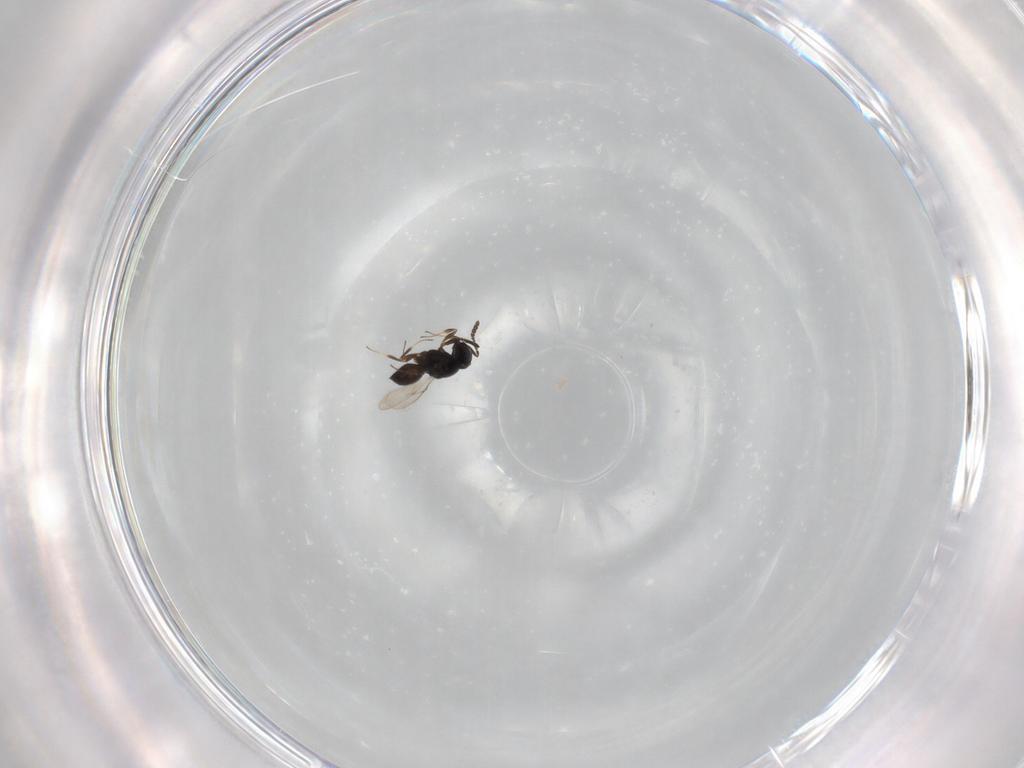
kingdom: Animalia
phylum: Arthropoda
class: Insecta
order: Hymenoptera
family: Scelionidae
